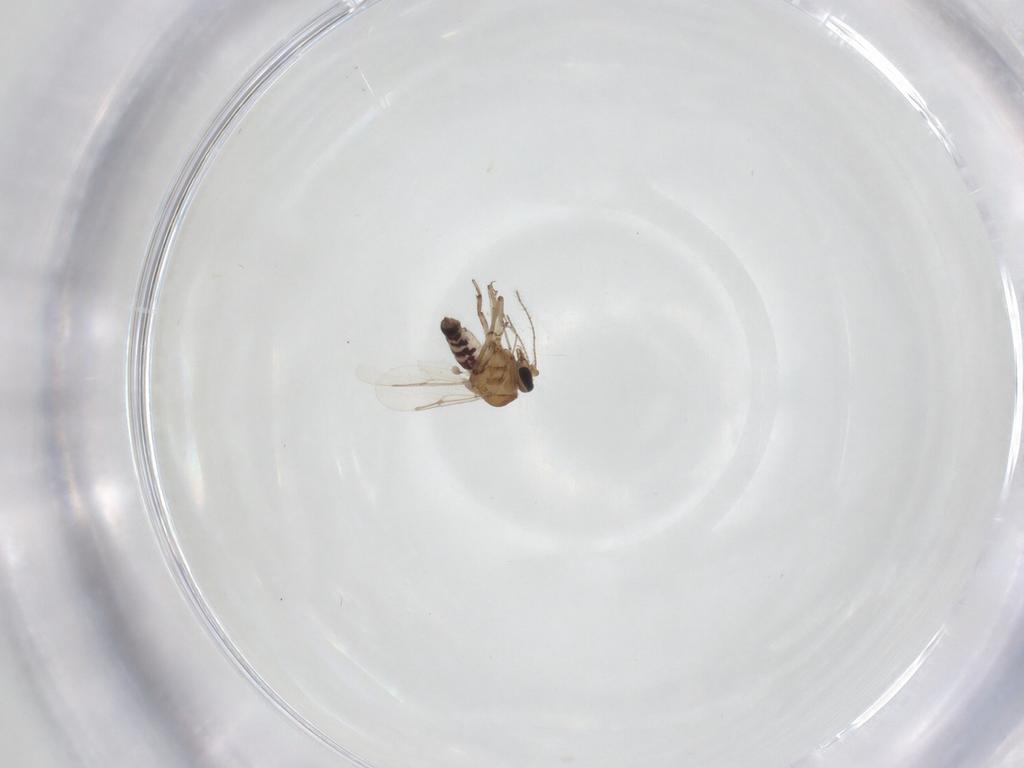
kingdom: Animalia
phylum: Arthropoda
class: Insecta
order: Diptera
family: Ceratopogonidae
